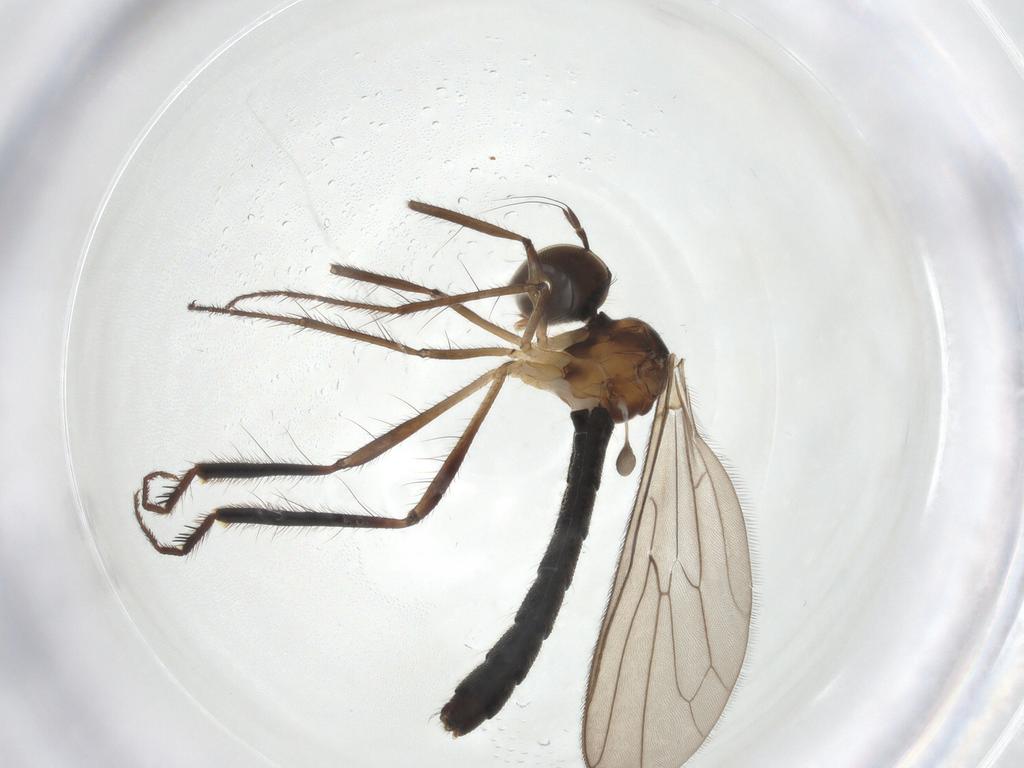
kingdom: Animalia
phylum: Arthropoda
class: Insecta
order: Diptera
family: Hybotidae
